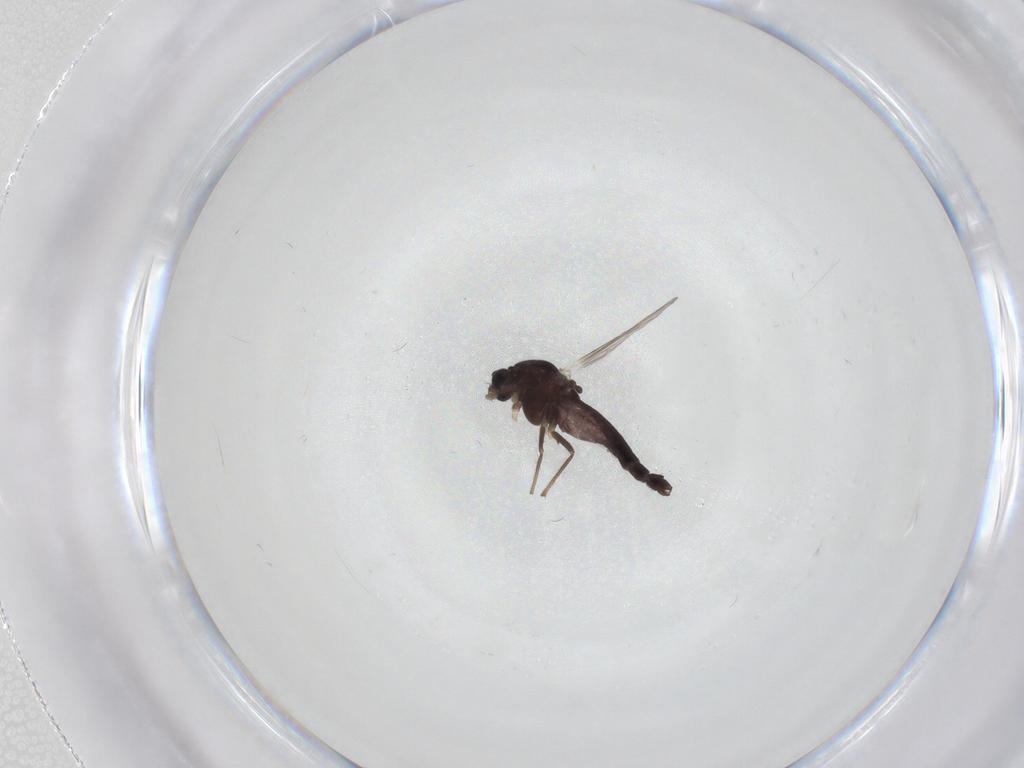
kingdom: Animalia
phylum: Arthropoda
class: Insecta
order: Diptera
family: Chironomidae
